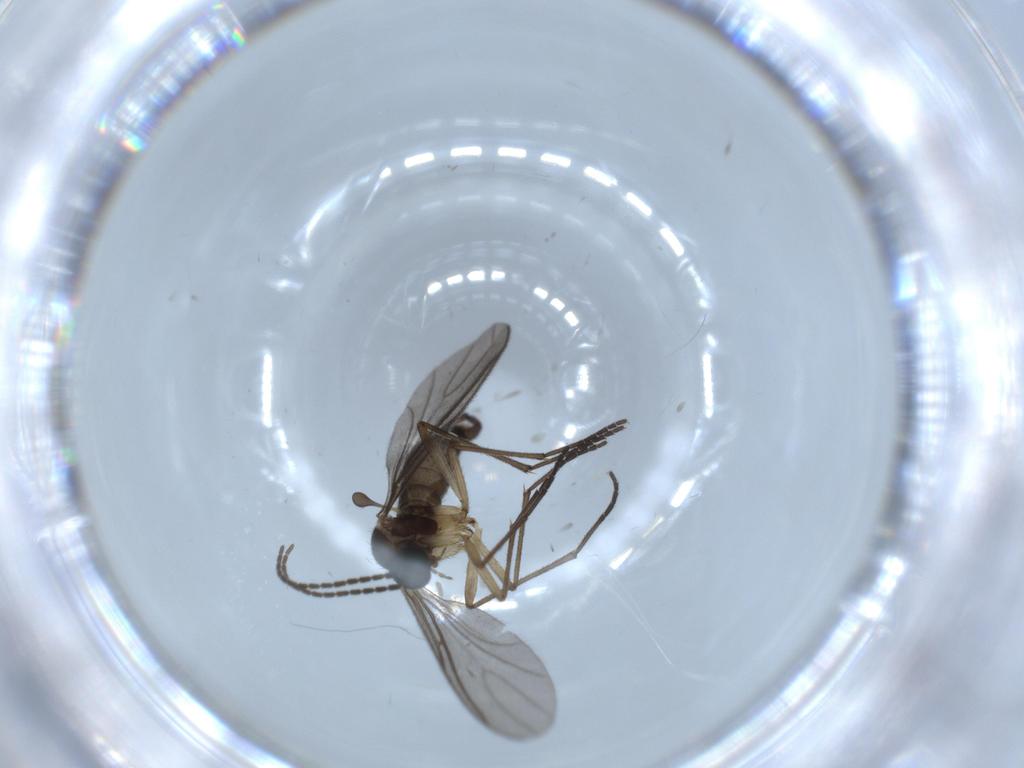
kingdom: Animalia
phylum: Arthropoda
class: Insecta
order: Diptera
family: Sciaridae
